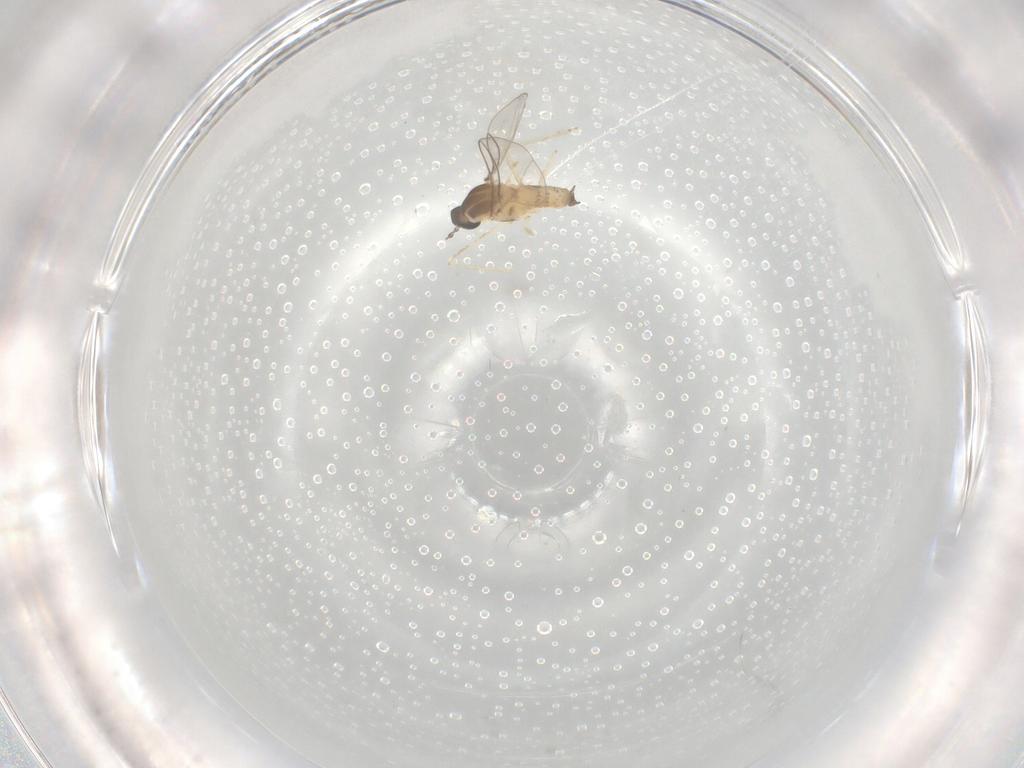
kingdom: Animalia
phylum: Arthropoda
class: Insecta
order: Diptera
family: Cecidomyiidae
